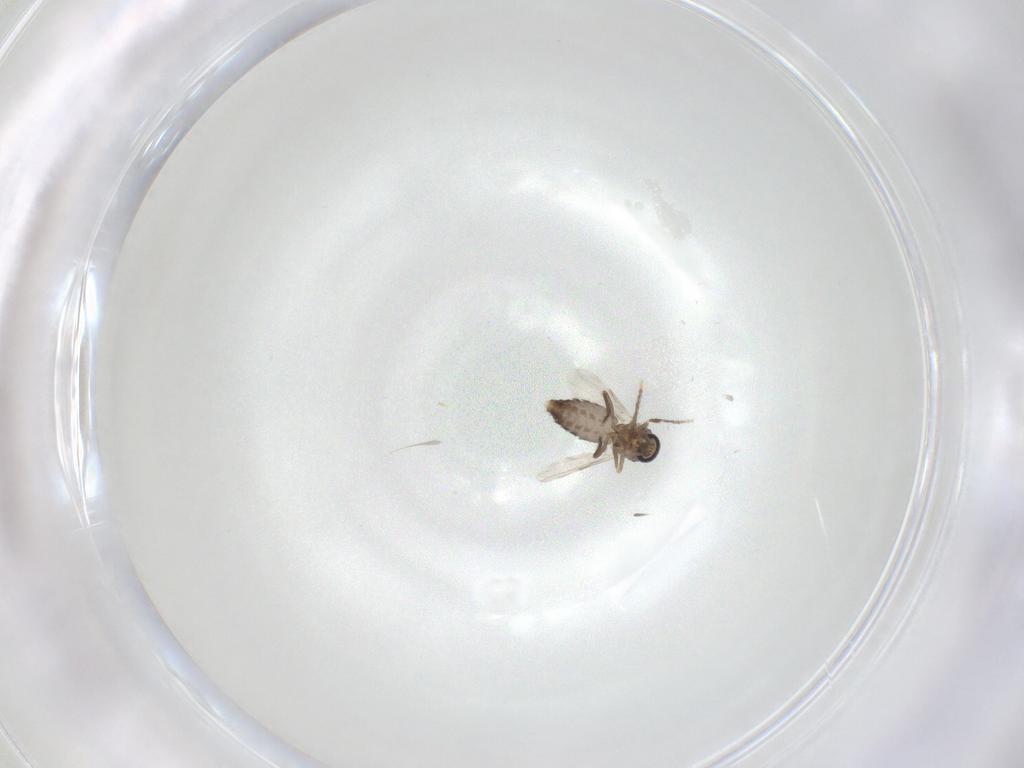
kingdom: Animalia
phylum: Arthropoda
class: Insecta
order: Diptera
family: Ceratopogonidae
